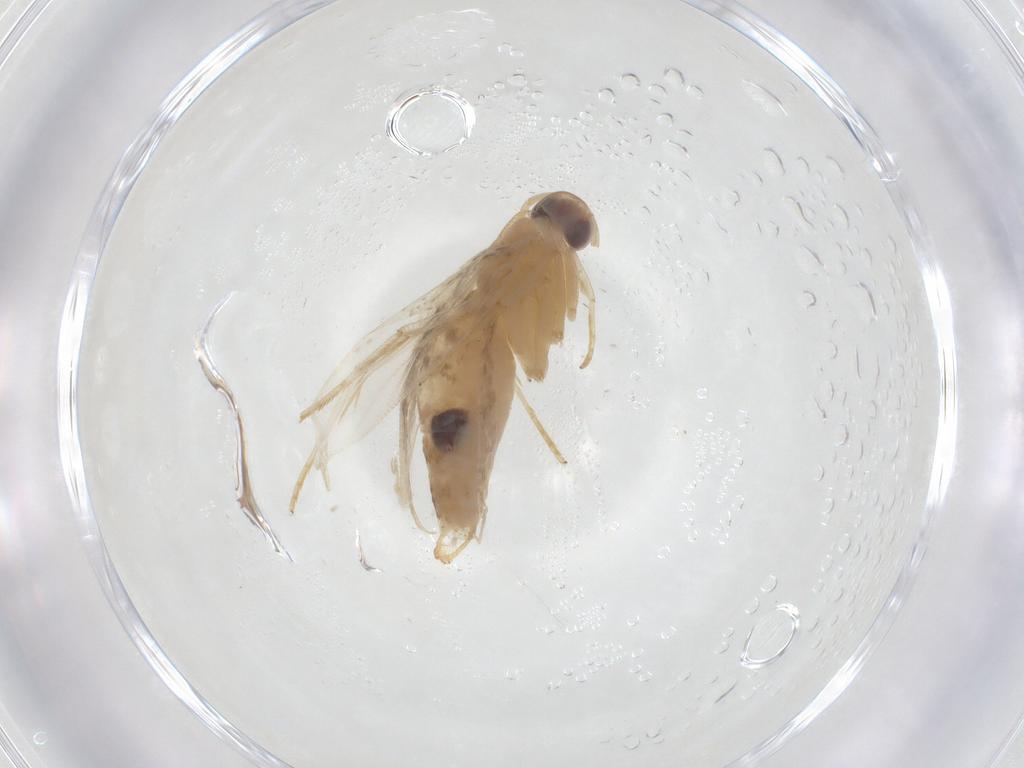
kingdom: Animalia
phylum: Arthropoda
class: Insecta
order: Lepidoptera
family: Cosmopterigidae
